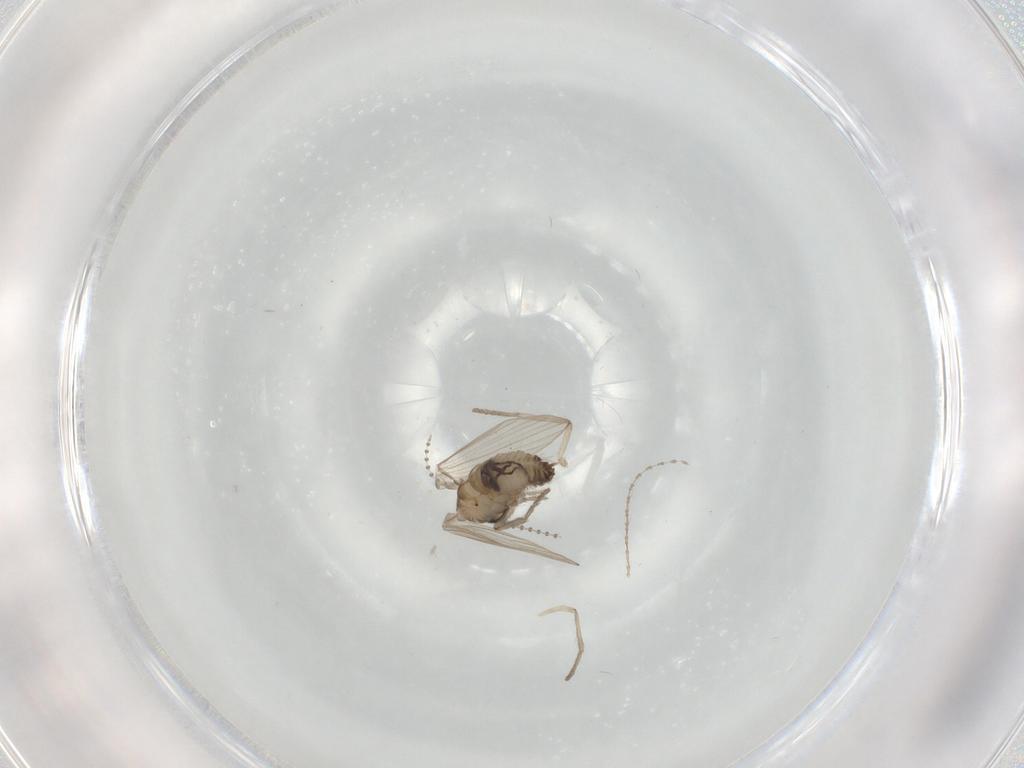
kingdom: Animalia
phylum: Arthropoda
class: Insecta
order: Diptera
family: Psychodidae
